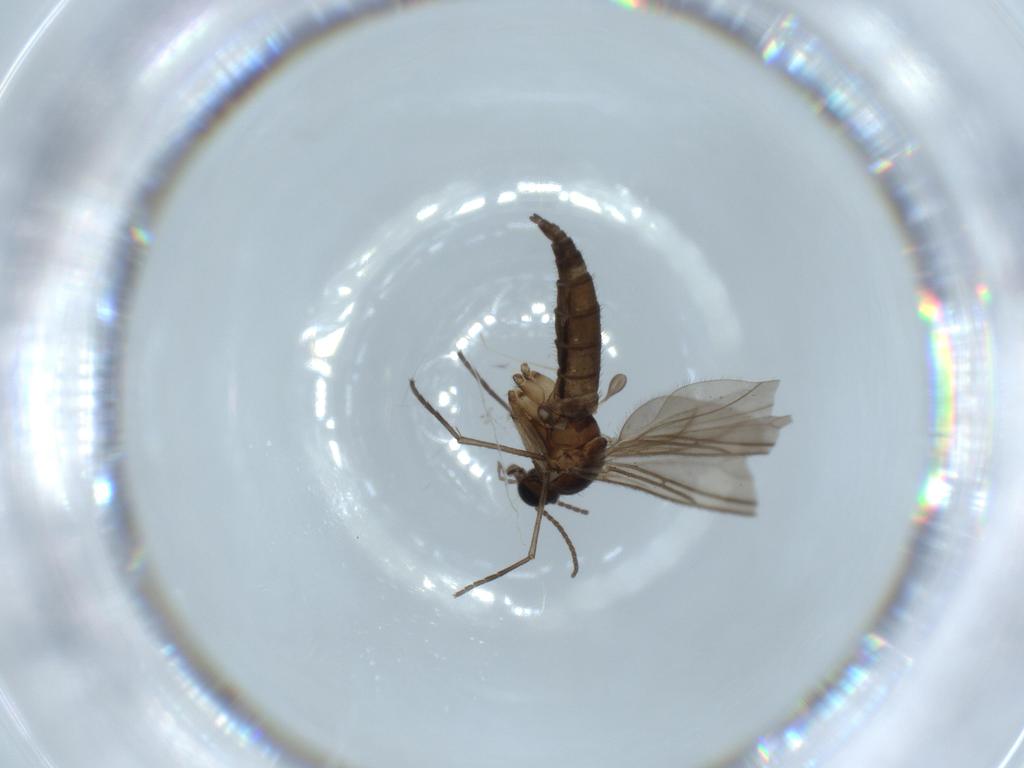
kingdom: Animalia
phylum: Arthropoda
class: Insecta
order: Diptera
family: Sciaridae
